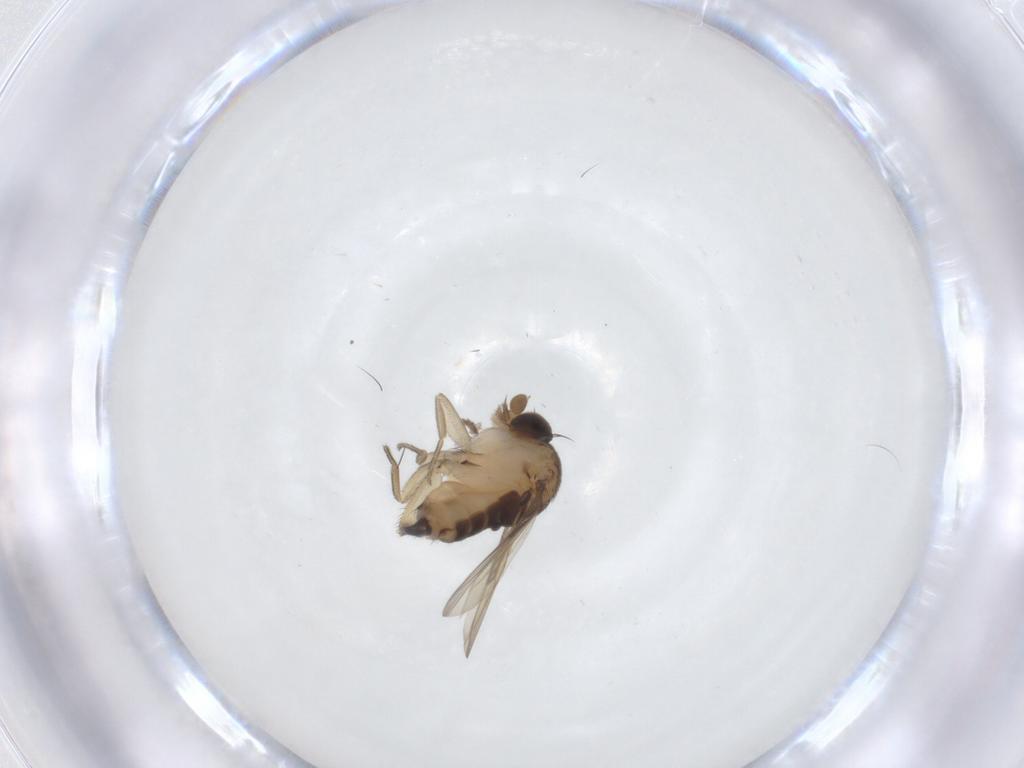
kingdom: Animalia
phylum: Arthropoda
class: Insecta
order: Diptera
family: Phoridae
